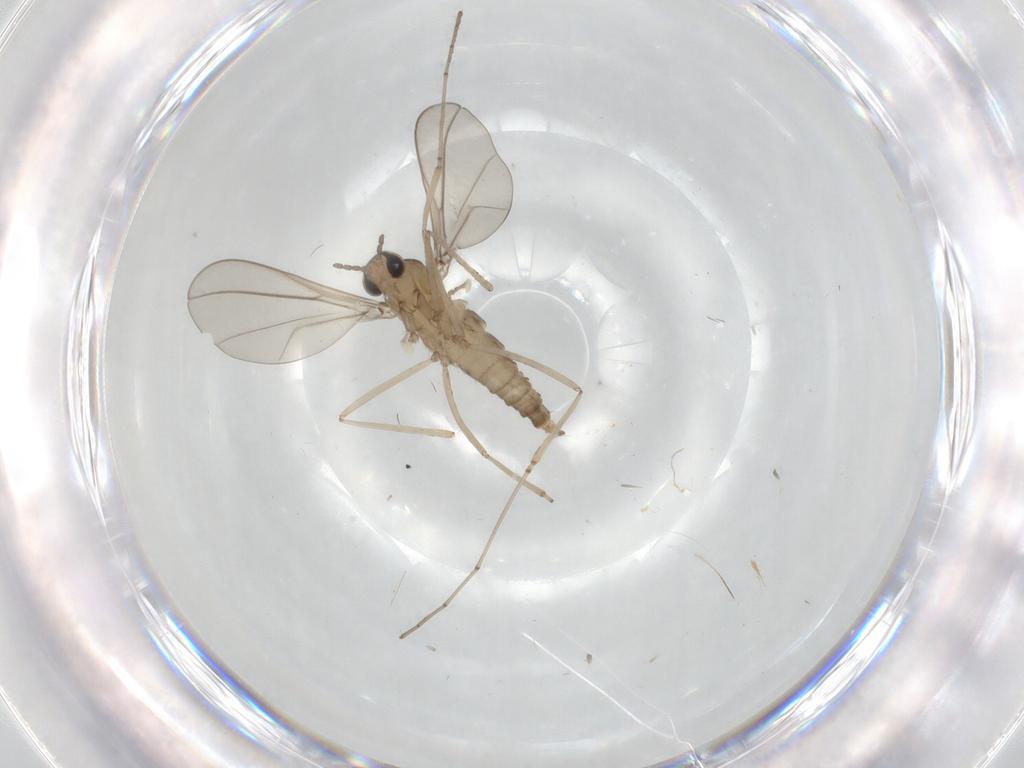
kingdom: Animalia
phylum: Arthropoda
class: Insecta
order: Diptera
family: Cecidomyiidae
